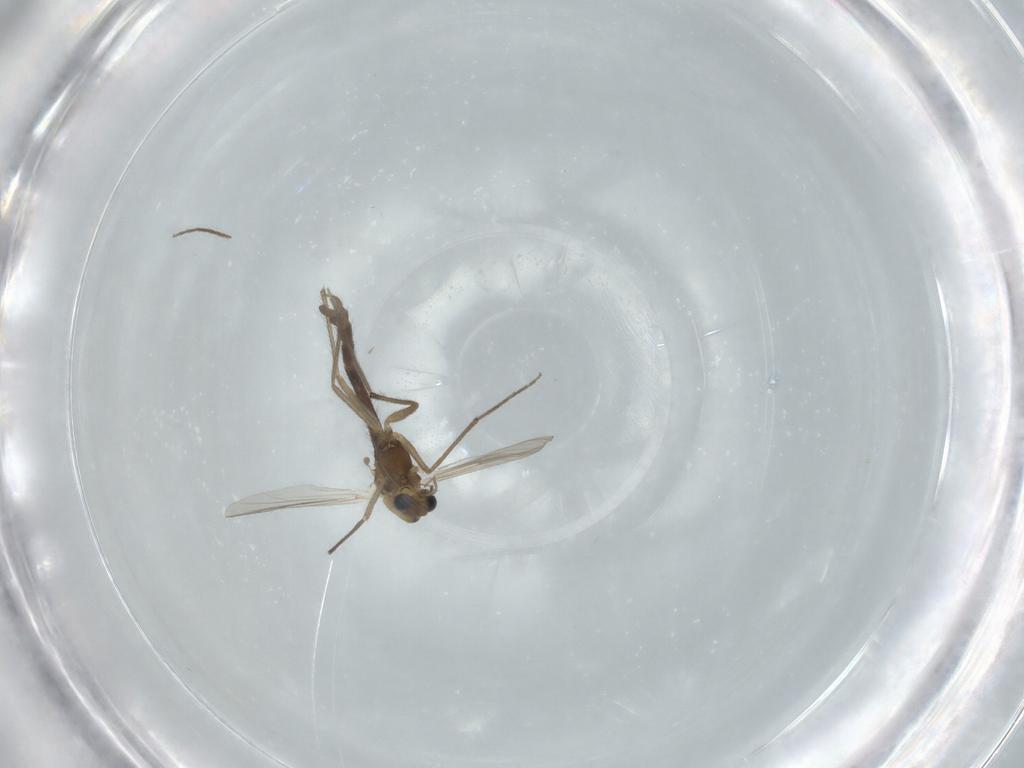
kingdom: Animalia
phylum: Arthropoda
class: Insecta
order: Diptera
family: Chironomidae
